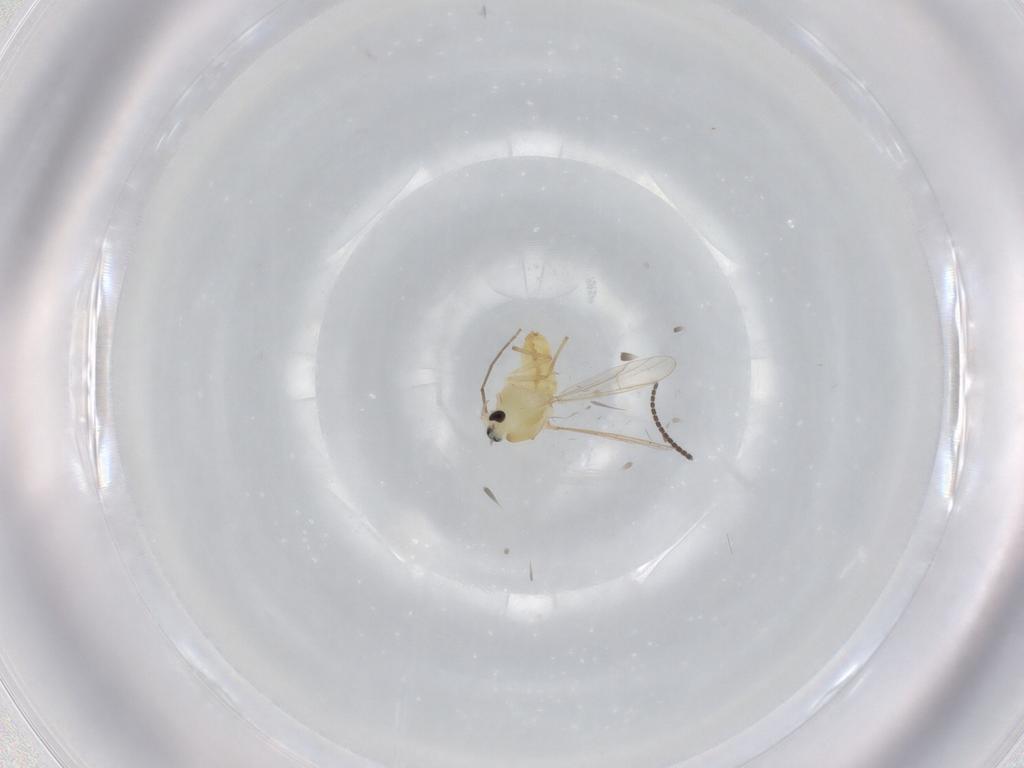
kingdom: Animalia
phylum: Arthropoda
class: Insecta
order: Diptera
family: Chironomidae
